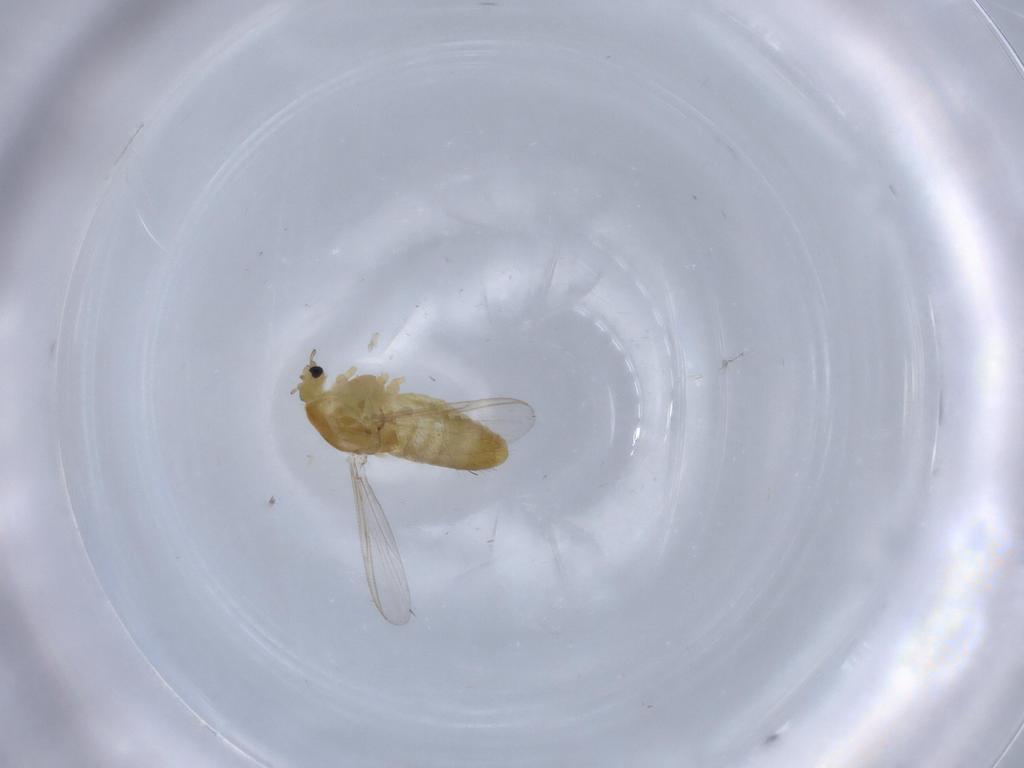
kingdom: Animalia
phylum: Arthropoda
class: Insecta
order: Diptera
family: Chironomidae
